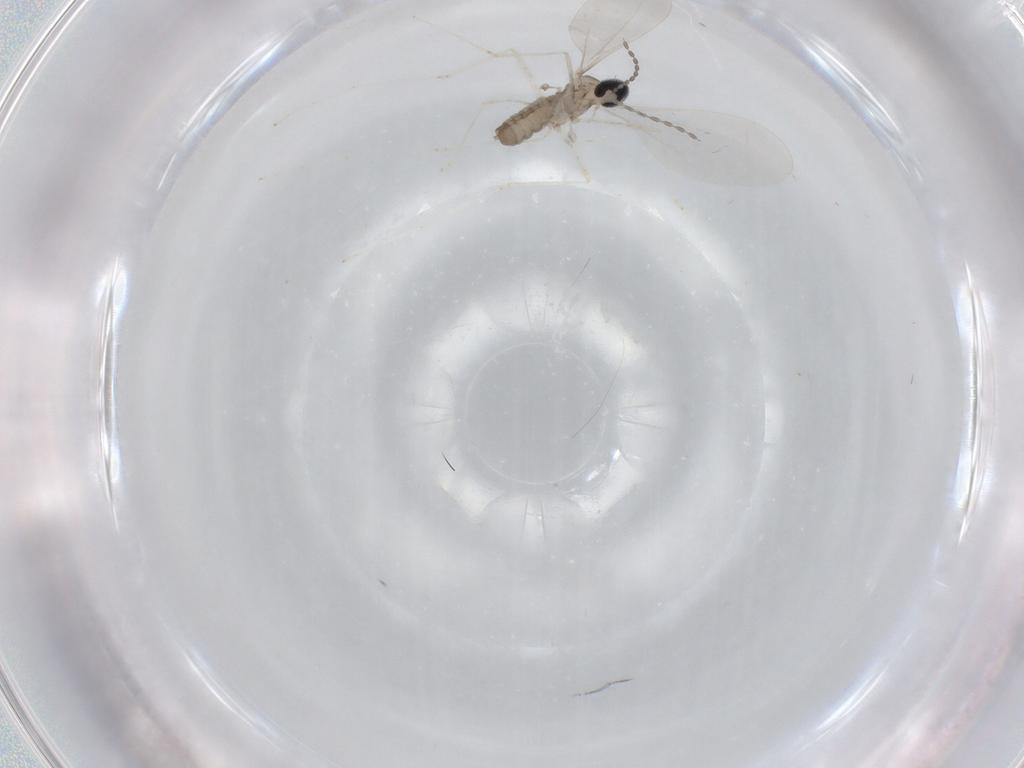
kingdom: Animalia
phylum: Arthropoda
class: Insecta
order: Diptera
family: Cecidomyiidae
